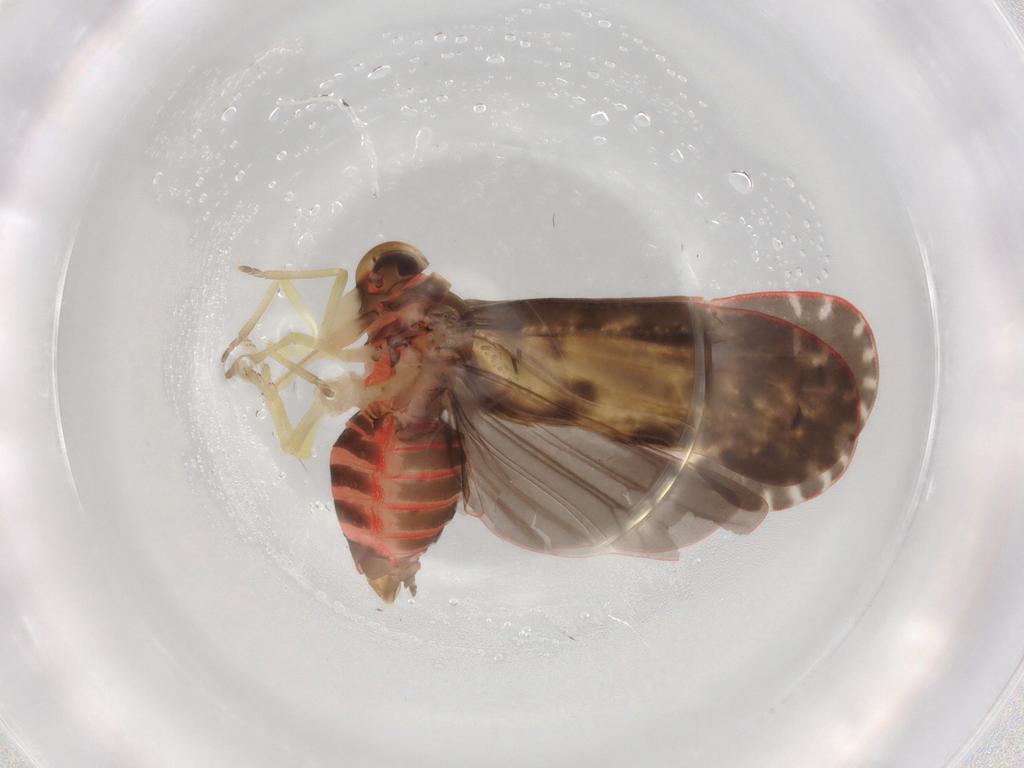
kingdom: Animalia
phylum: Arthropoda
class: Insecta
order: Hemiptera
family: Derbidae
